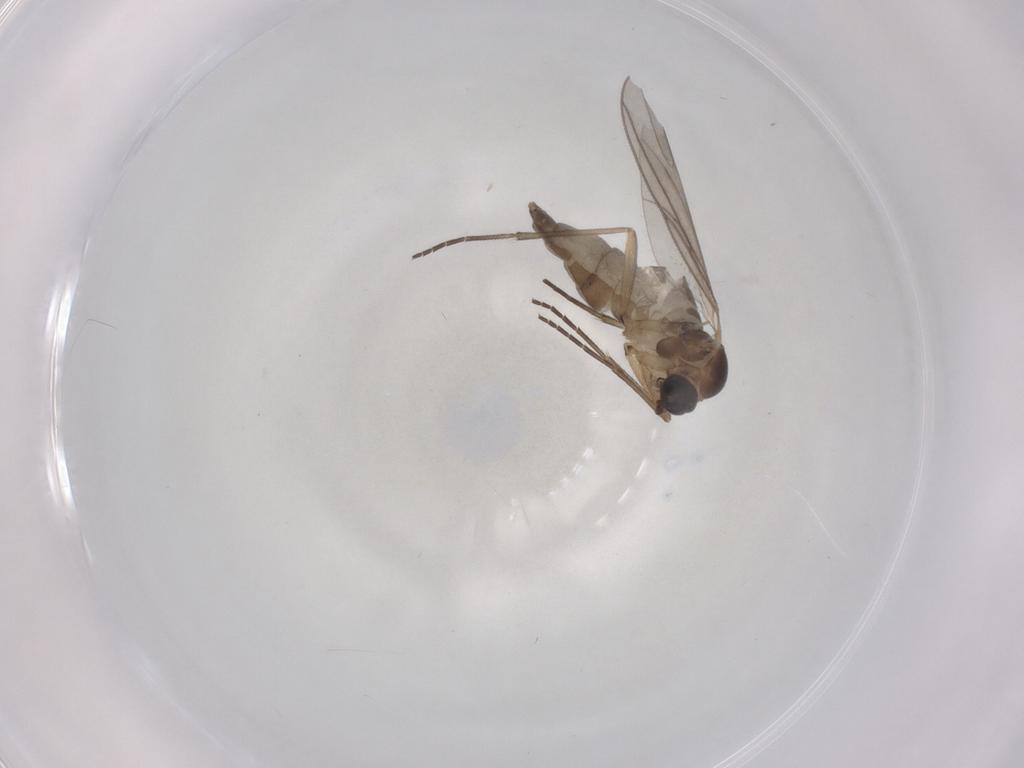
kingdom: Animalia
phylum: Arthropoda
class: Insecta
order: Diptera
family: Sciaridae
